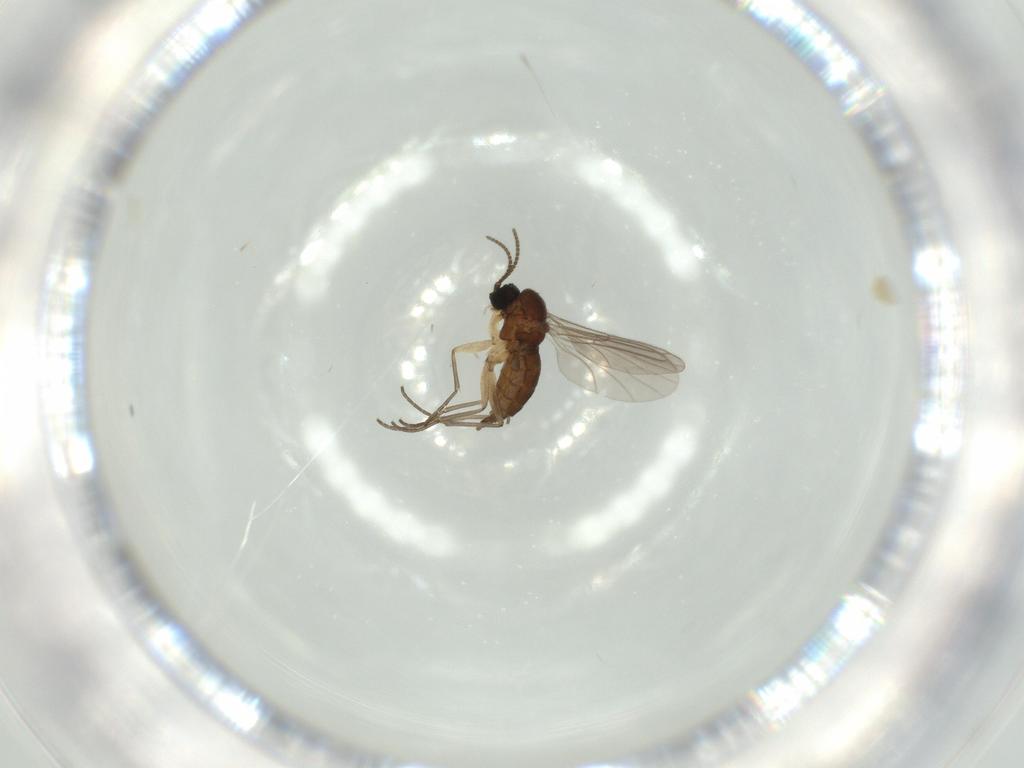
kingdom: Animalia
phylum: Arthropoda
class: Insecta
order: Diptera
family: Sciaridae
